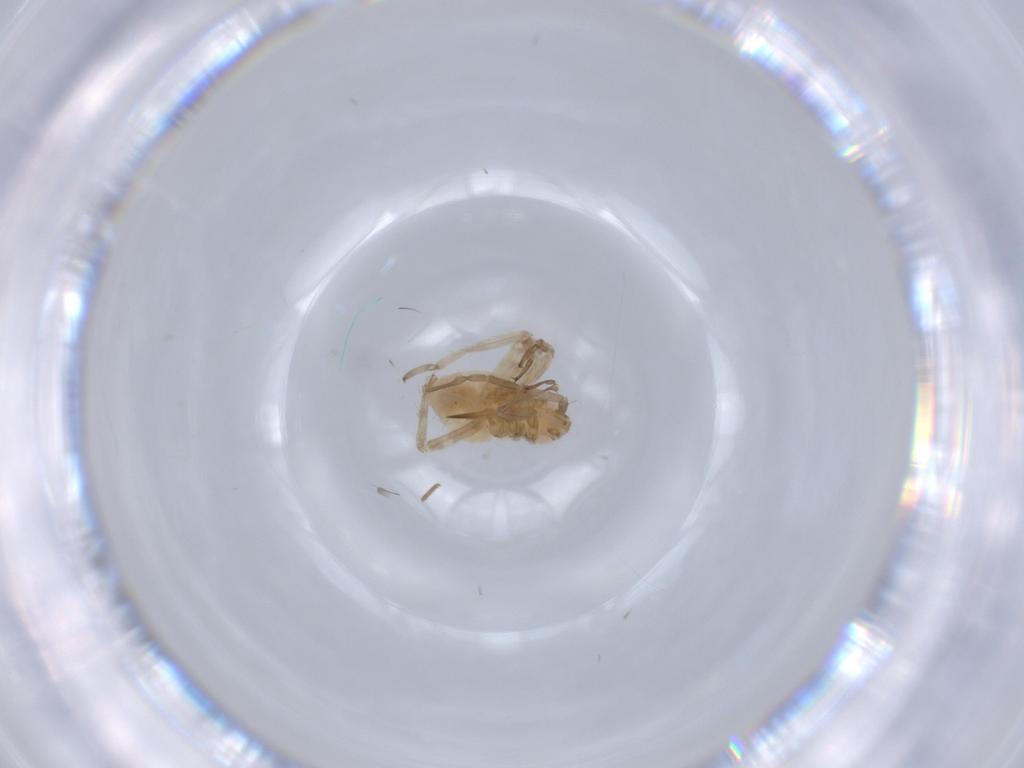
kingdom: Animalia
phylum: Arthropoda
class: Insecta
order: Hemiptera
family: Miridae
